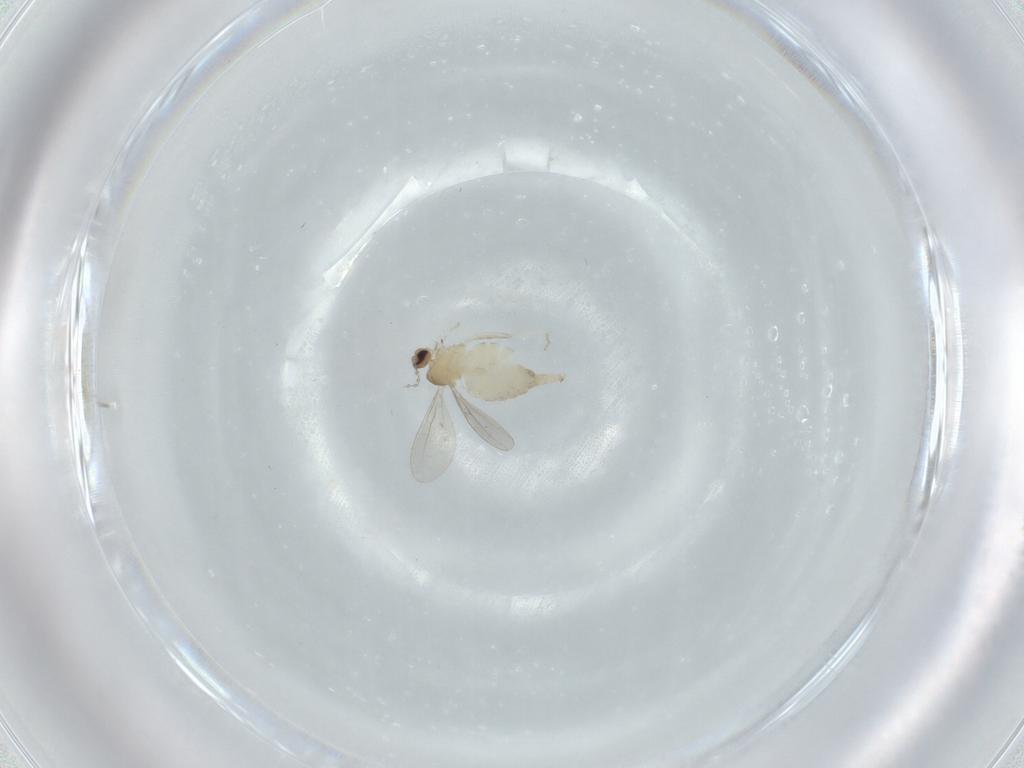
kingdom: Animalia
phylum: Arthropoda
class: Insecta
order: Diptera
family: Cecidomyiidae
